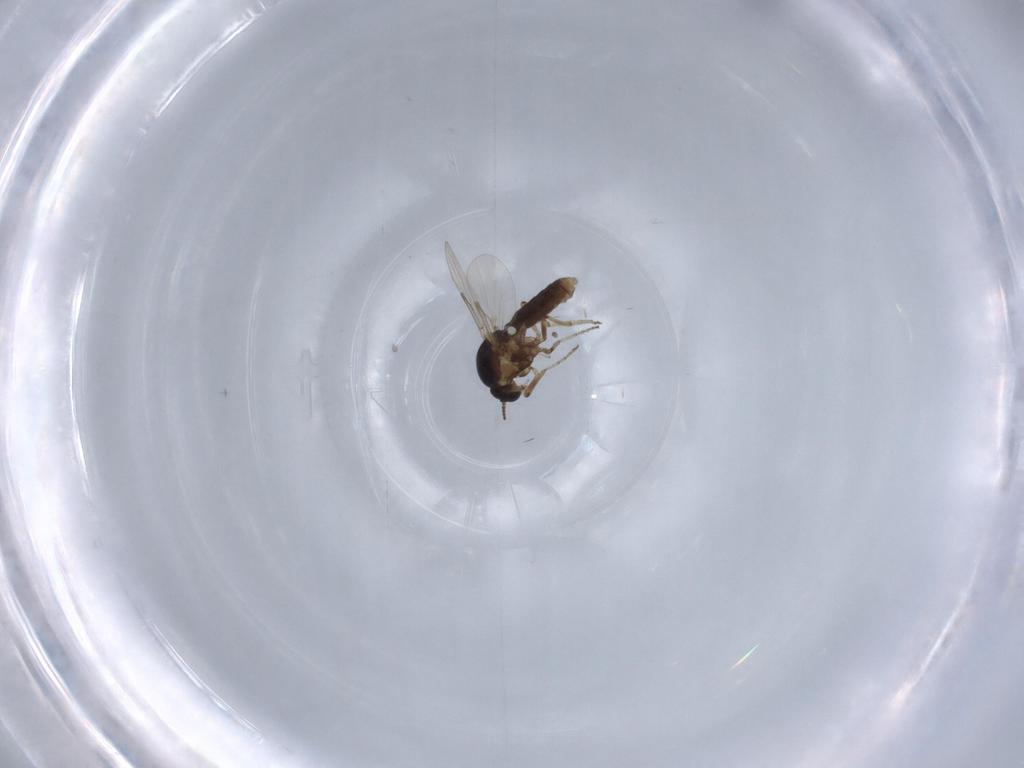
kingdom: Animalia
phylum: Arthropoda
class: Insecta
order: Diptera
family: Ceratopogonidae
